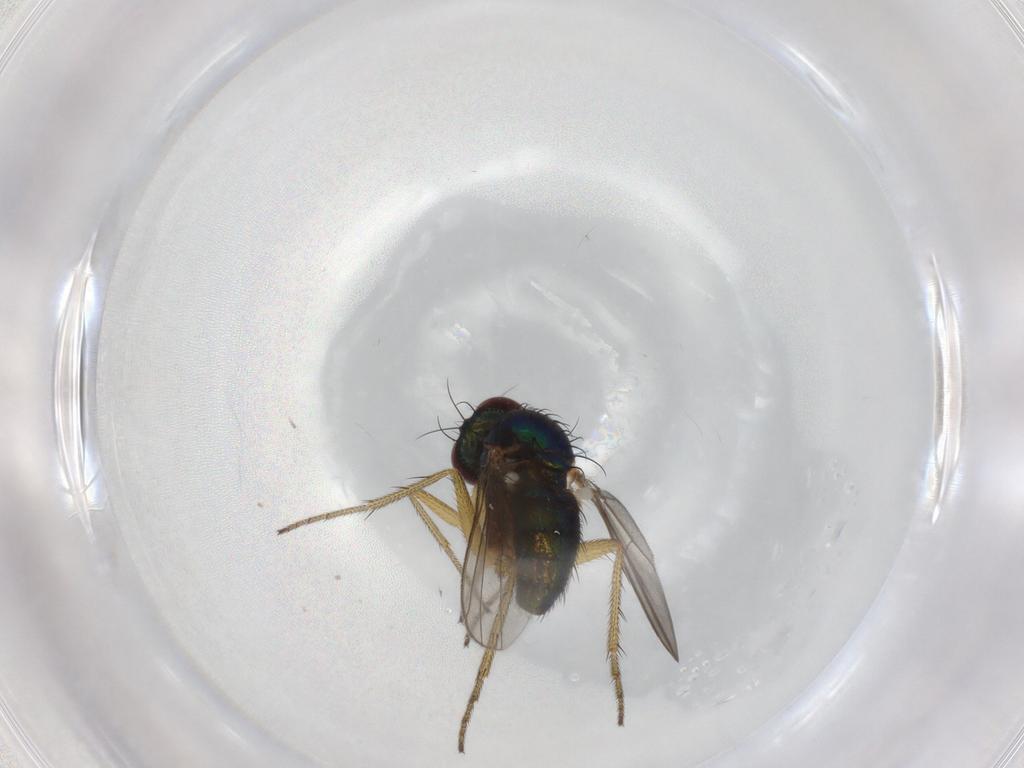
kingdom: Animalia
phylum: Arthropoda
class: Insecta
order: Diptera
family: Dolichopodidae
